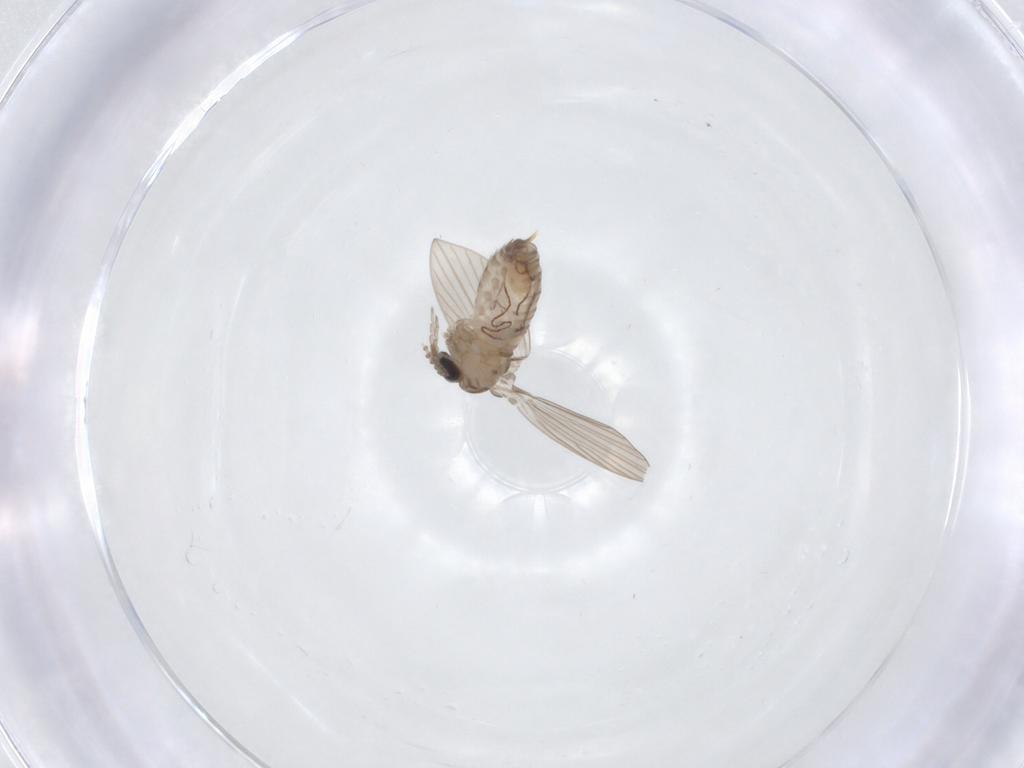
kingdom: Animalia
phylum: Arthropoda
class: Insecta
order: Diptera
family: Psychodidae
